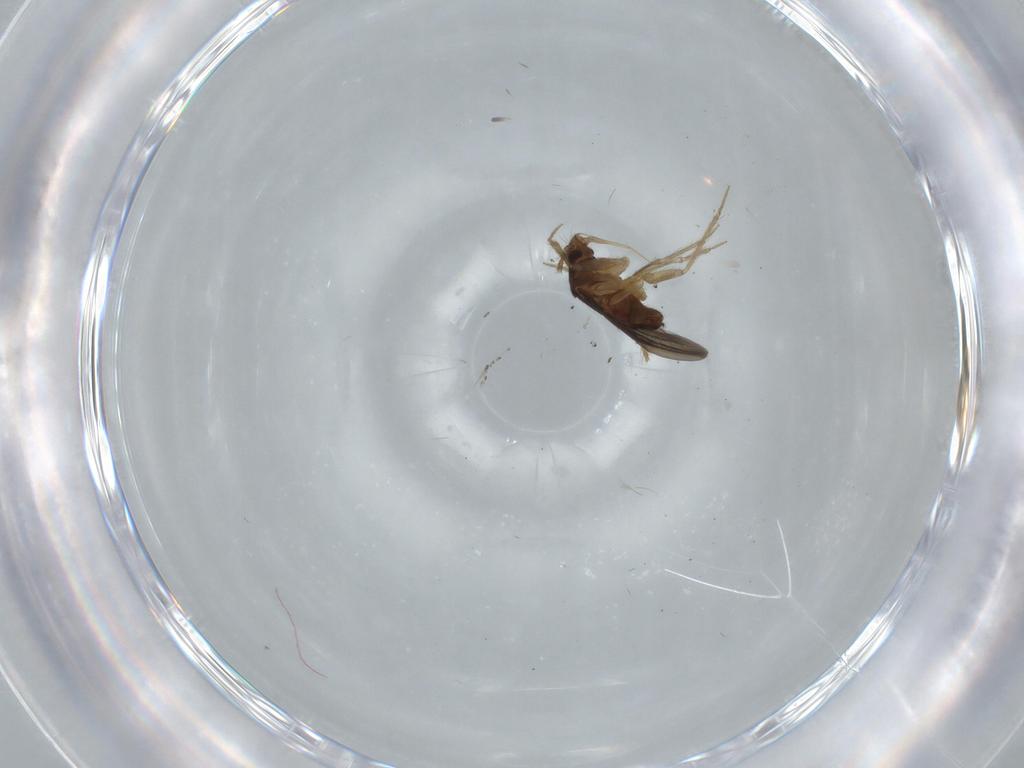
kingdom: Animalia
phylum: Arthropoda
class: Insecta
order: Hemiptera
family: Ceratocombidae
